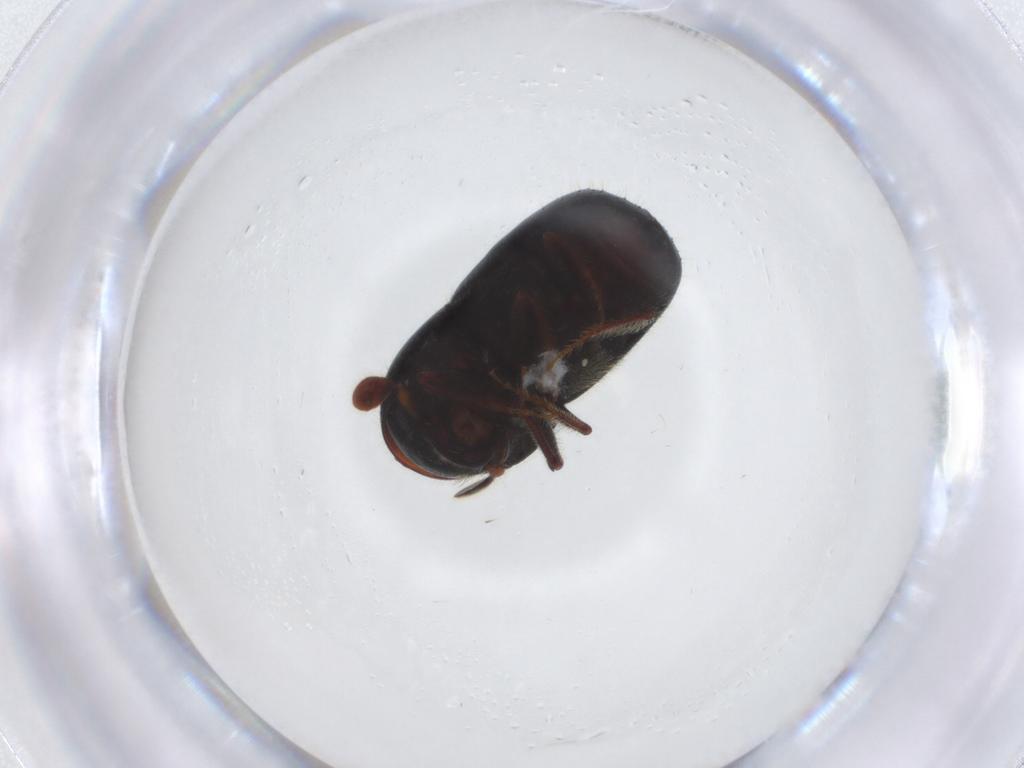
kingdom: Animalia
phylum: Arthropoda
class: Insecta
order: Coleoptera
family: Curculionidae
